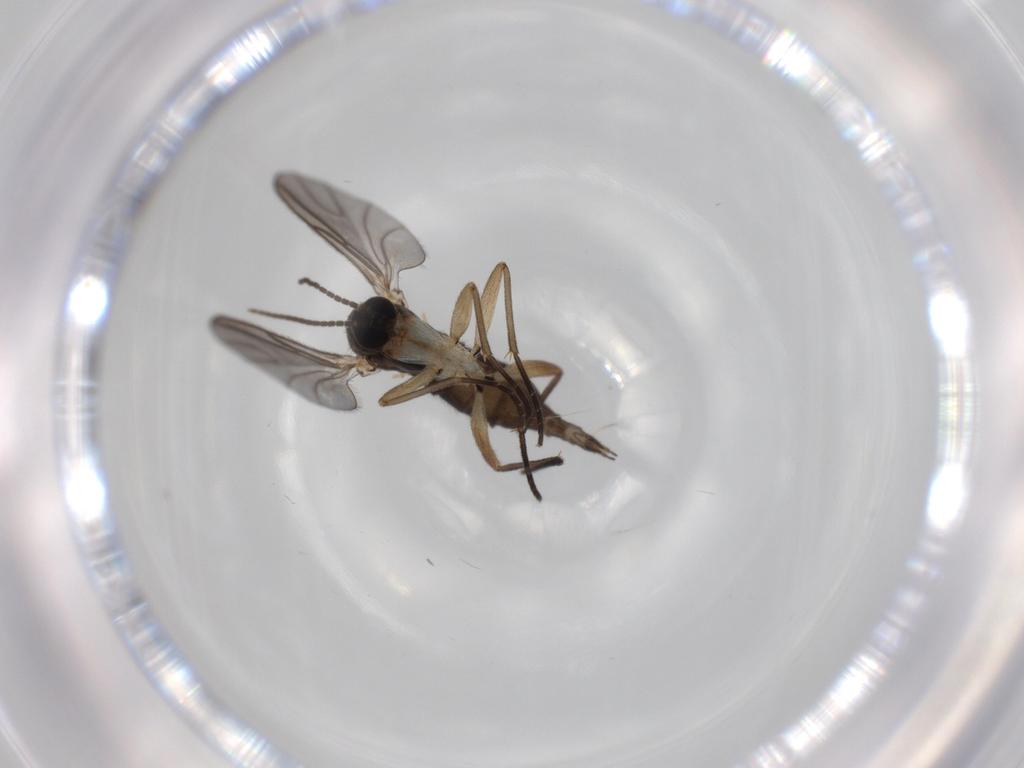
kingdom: Animalia
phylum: Arthropoda
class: Insecta
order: Diptera
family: Sciaridae
